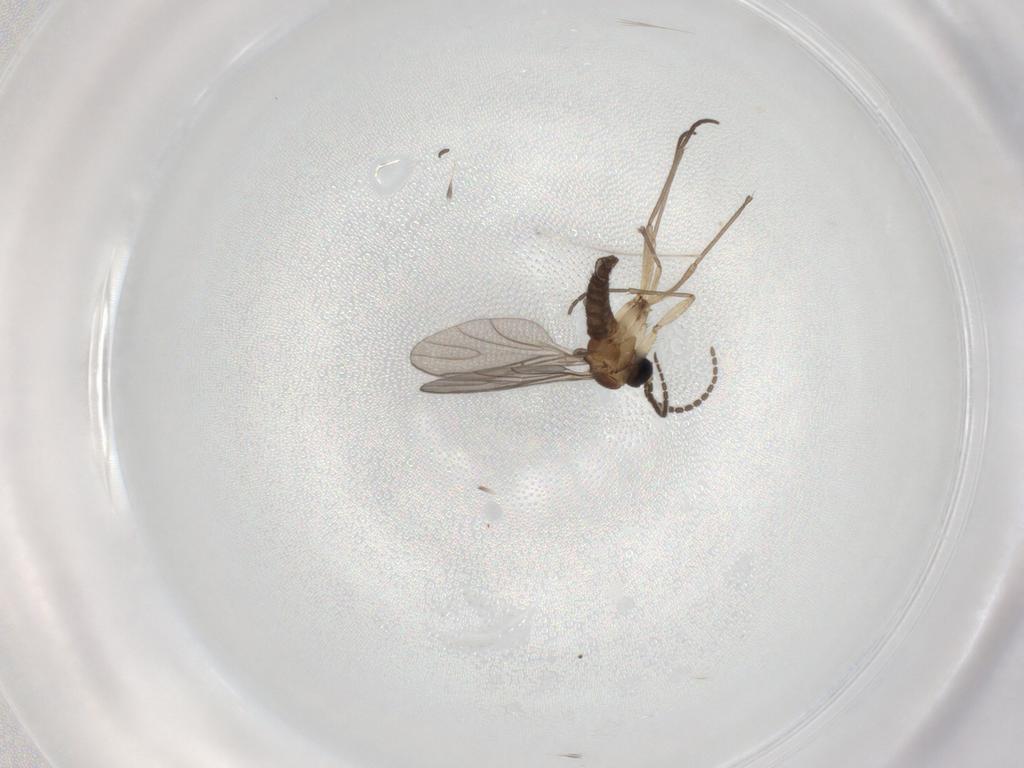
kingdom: Animalia
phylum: Arthropoda
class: Insecta
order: Diptera
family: Sciaridae
